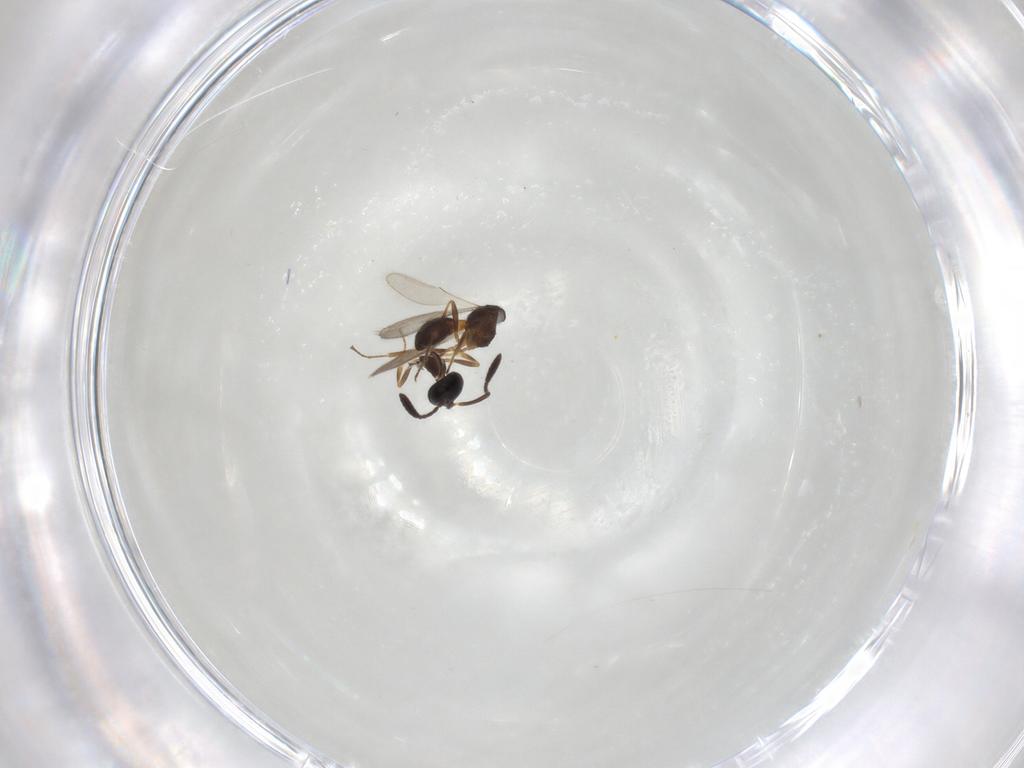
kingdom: Animalia
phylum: Arthropoda
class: Insecta
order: Hymenoptera
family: Scelionidae
